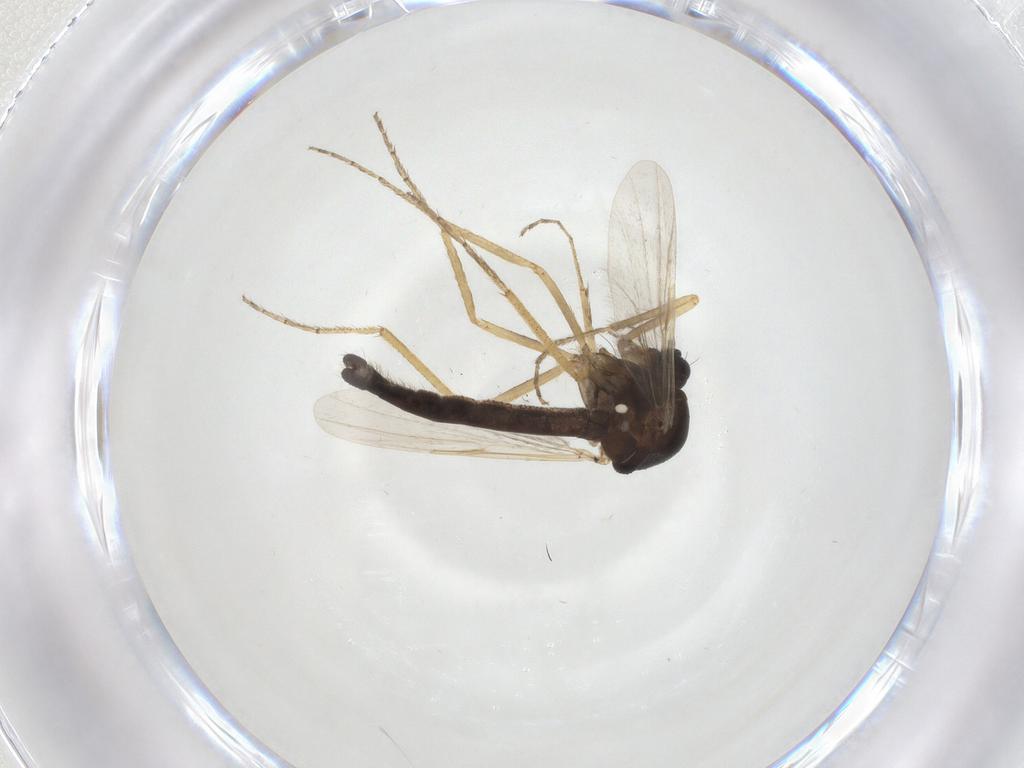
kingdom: Animalia
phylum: Arthropoda
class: Insecta
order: Diptera
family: Ceratopogonidae
